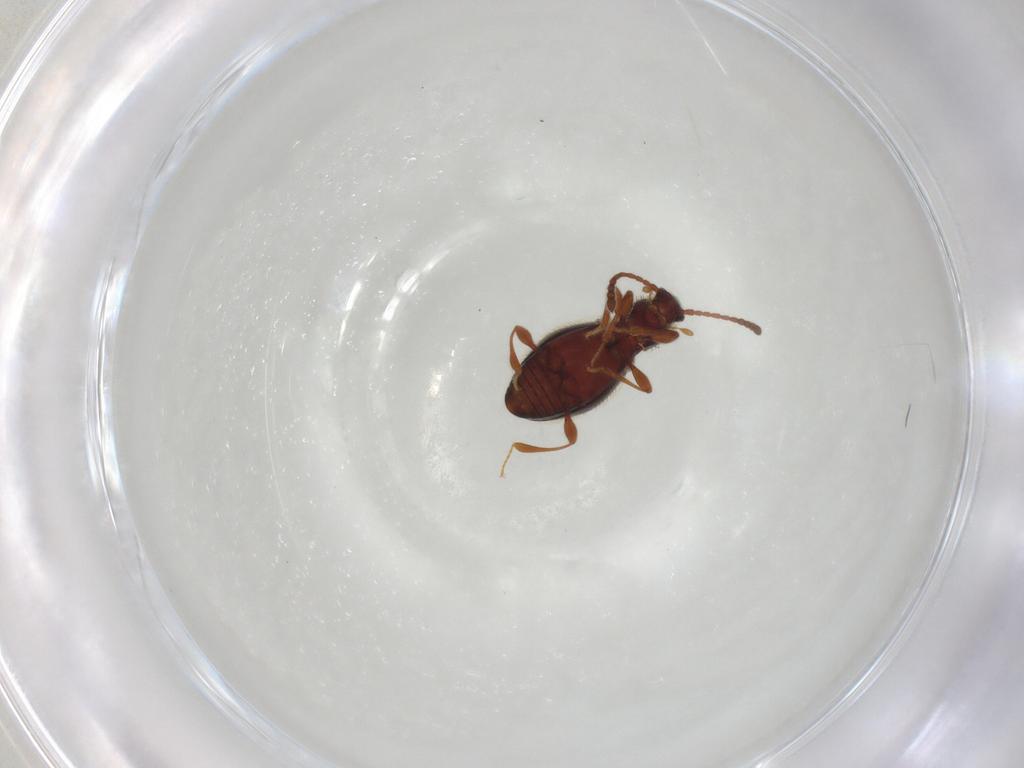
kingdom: Animalia
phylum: Arthropoda
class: Insecta
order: Coleoptera
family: Staphylinidae
